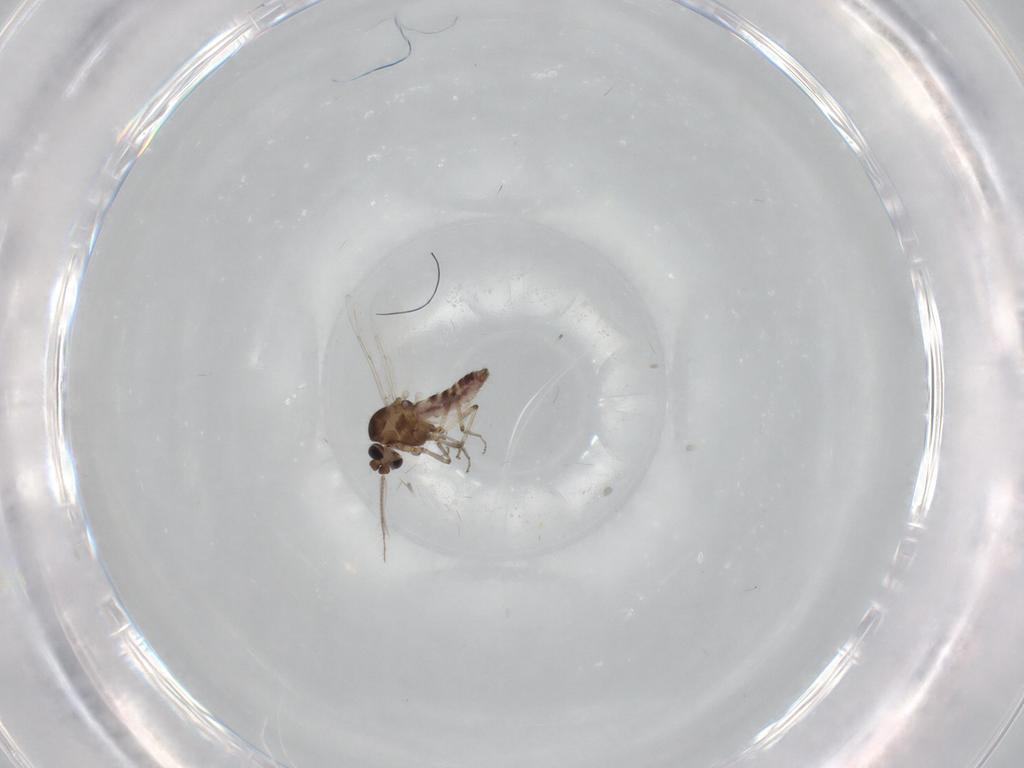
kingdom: Animalia
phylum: Arthropoda
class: Insecta
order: Diptera
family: Ceratopogonidae
